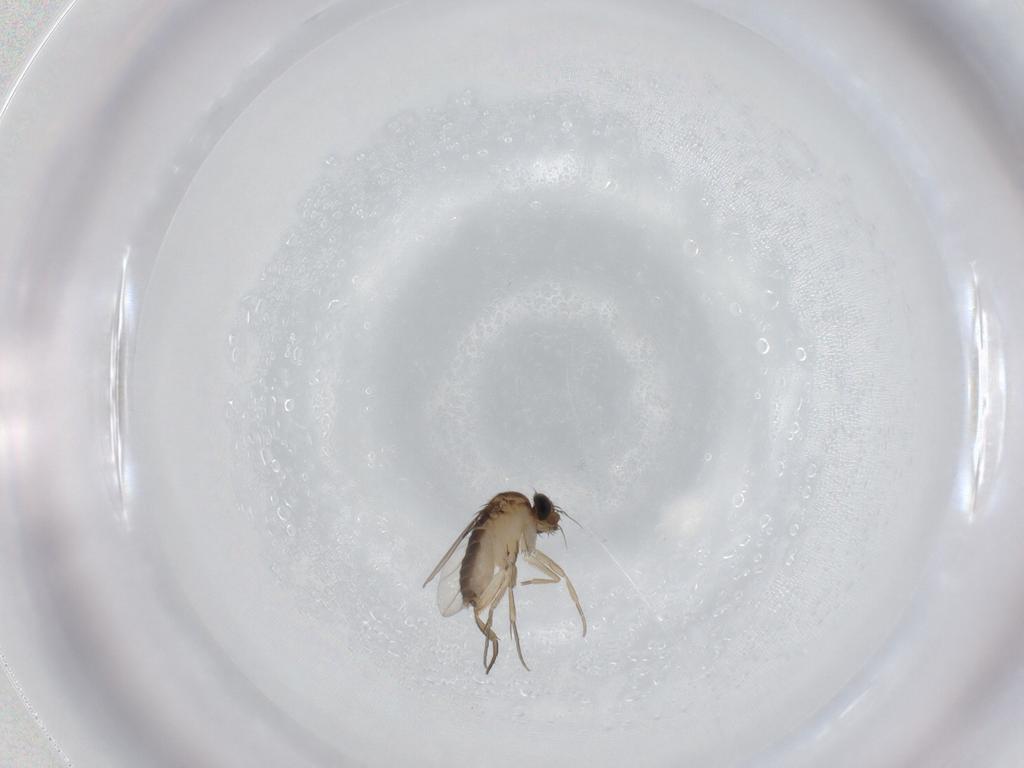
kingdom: Animalia
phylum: Arthropoda
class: Insecta
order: Diptera
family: Phoridae
